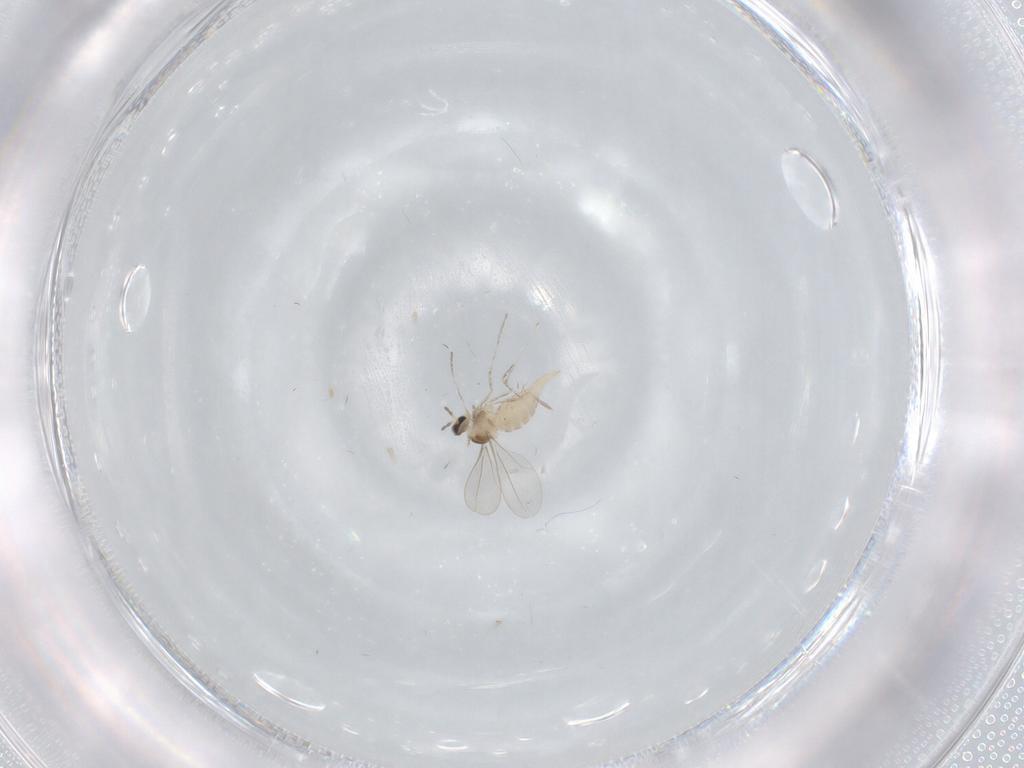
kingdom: Animalia
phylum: Arthropoda
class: Insecta
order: Diptera
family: Cecidomyiidae
